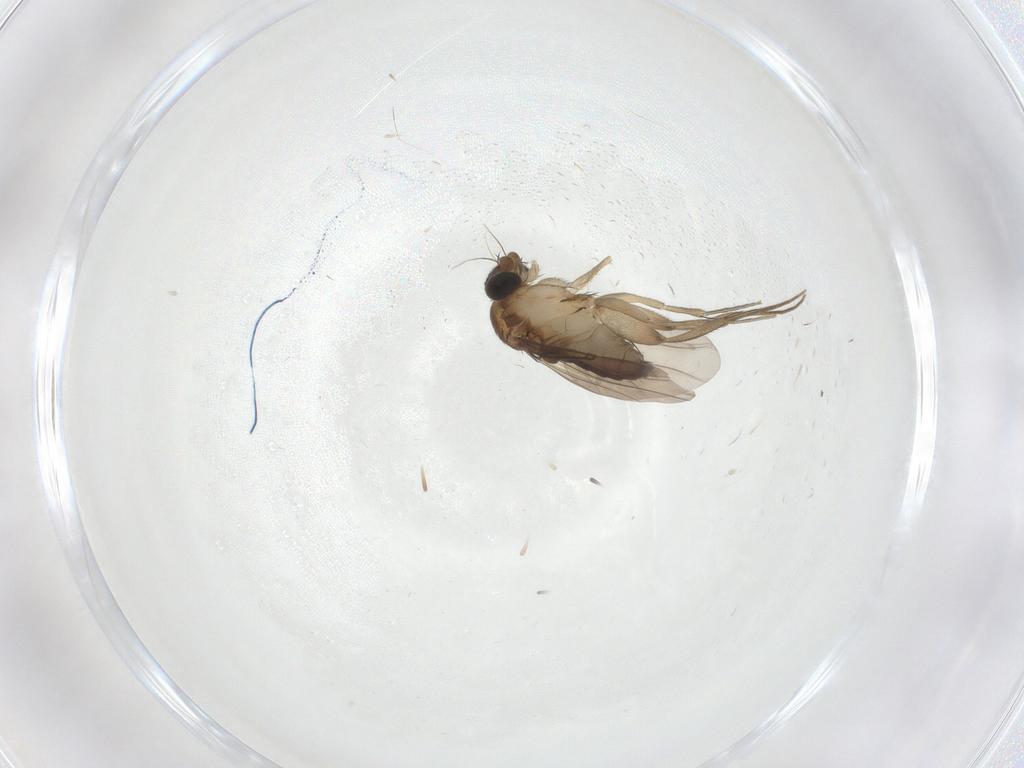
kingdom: Animalia
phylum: Arthropoda
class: Insecta
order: Diptera
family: Phoridae
